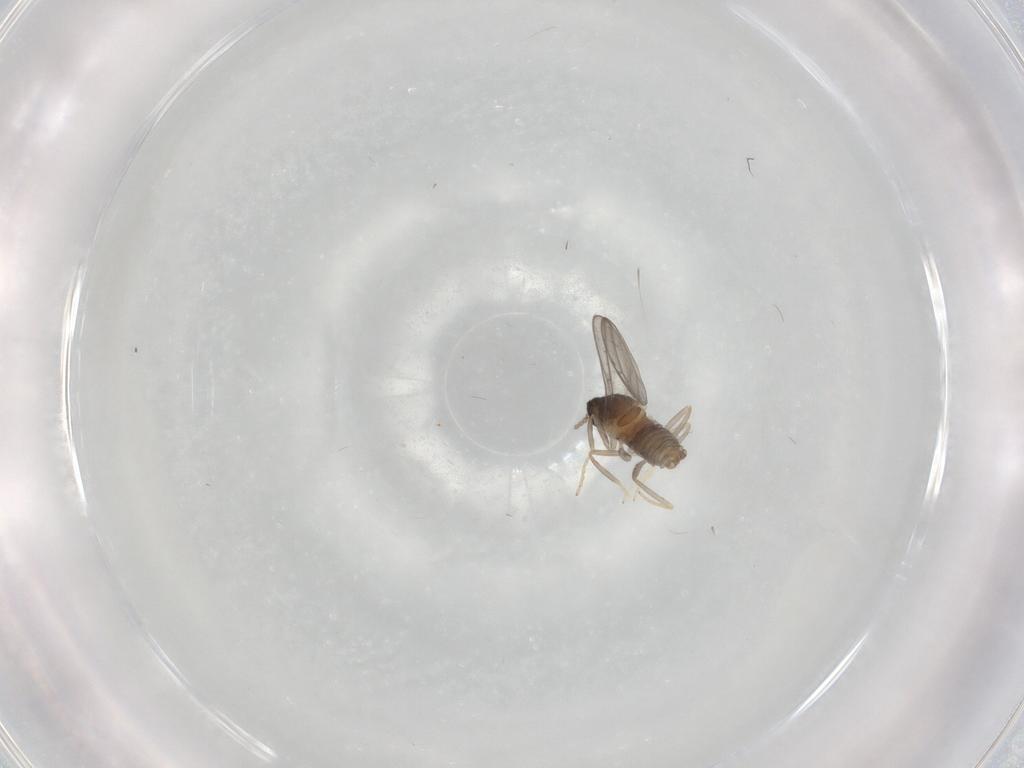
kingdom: Animalia
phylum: Arthropoda
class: Insecta
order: Diptera
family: Cecidomyiidae
